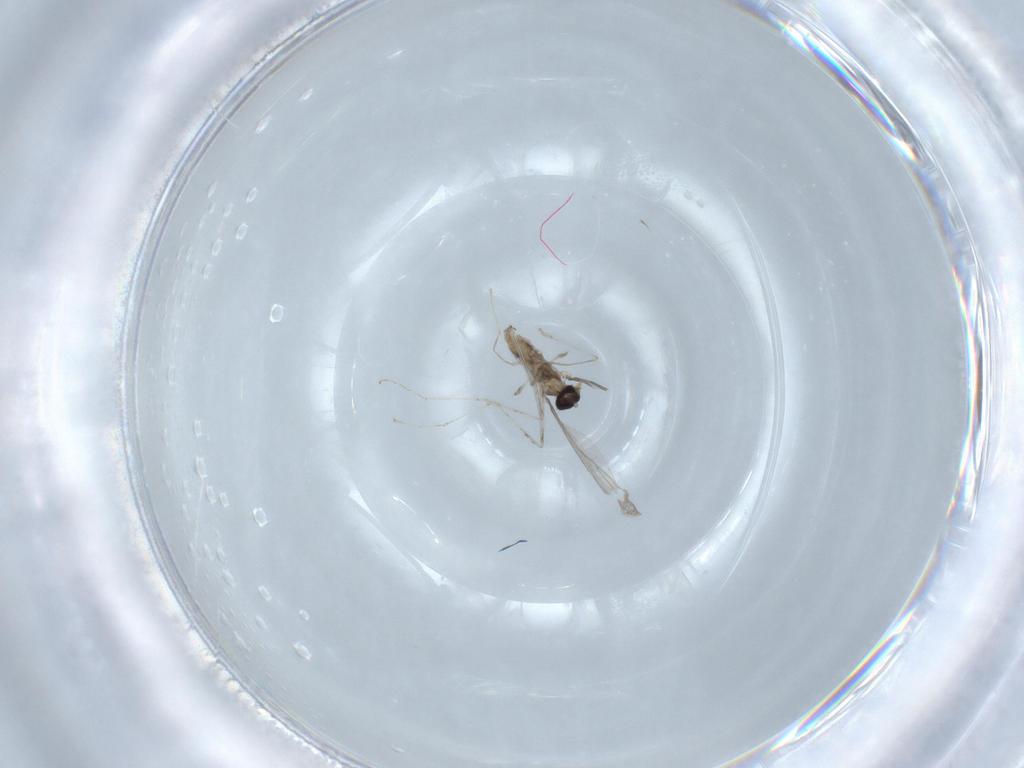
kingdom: Animalia
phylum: Arthropoda
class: Insecta
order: Diptera
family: Cecidomyiidae
